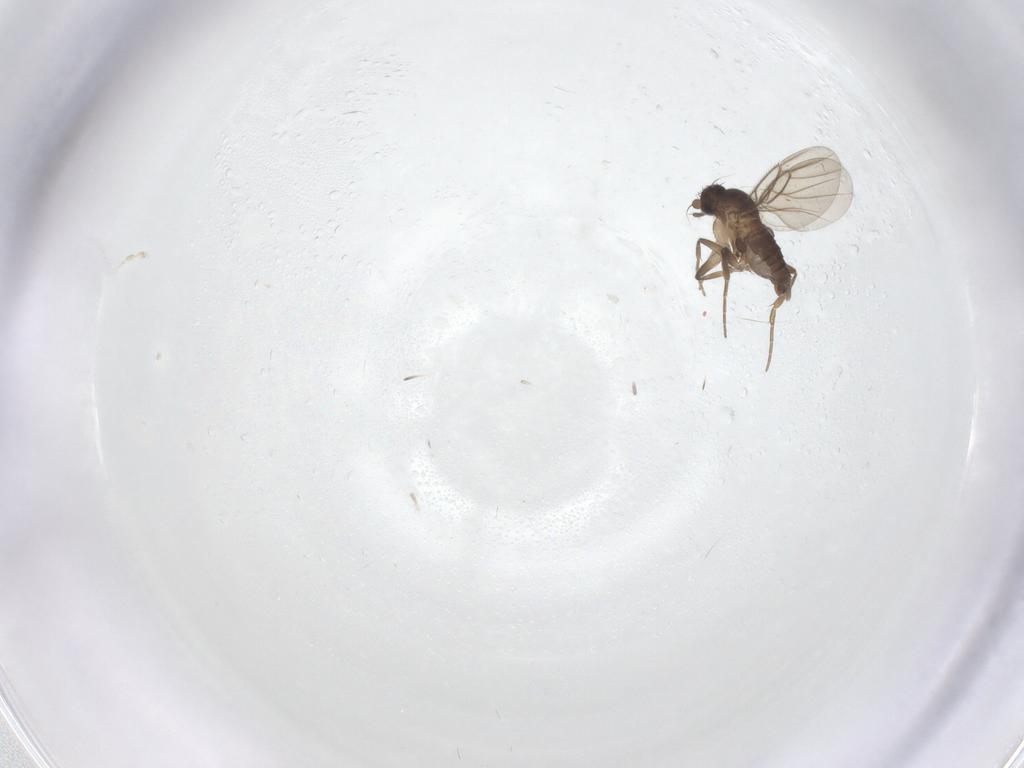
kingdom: Animalia
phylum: Arthropoda
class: Insecta
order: Diptera
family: Phoridae
